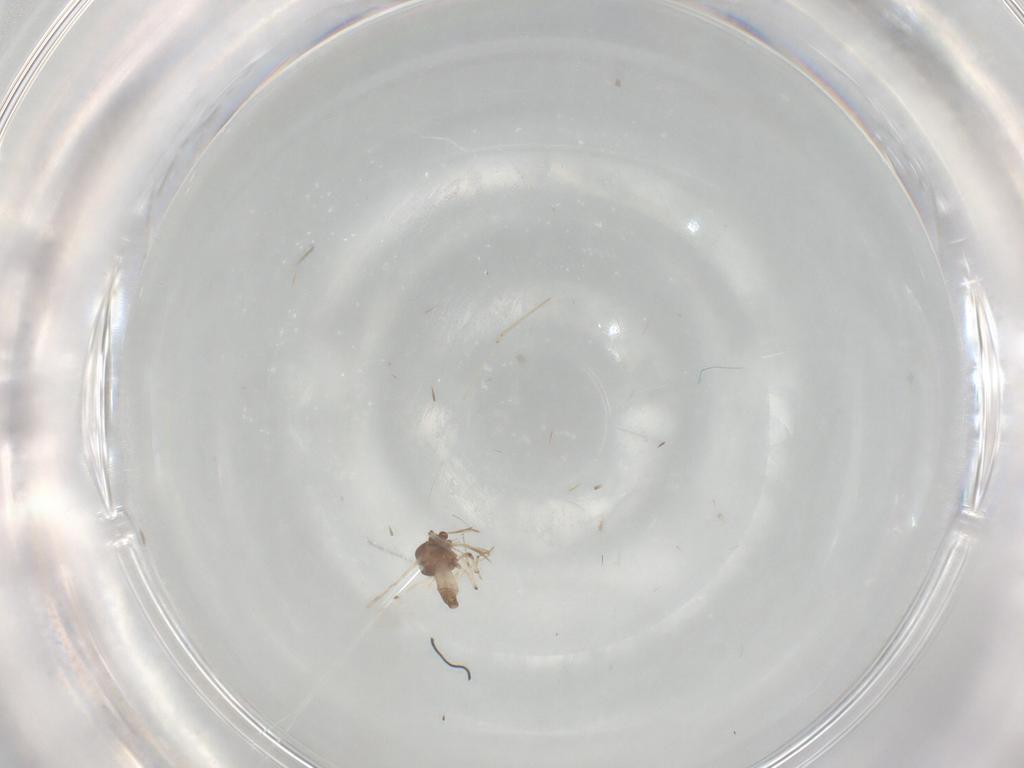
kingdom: Animalia
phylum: Arthropoda
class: Insecta
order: Diptera
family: Cecidomyiidae
